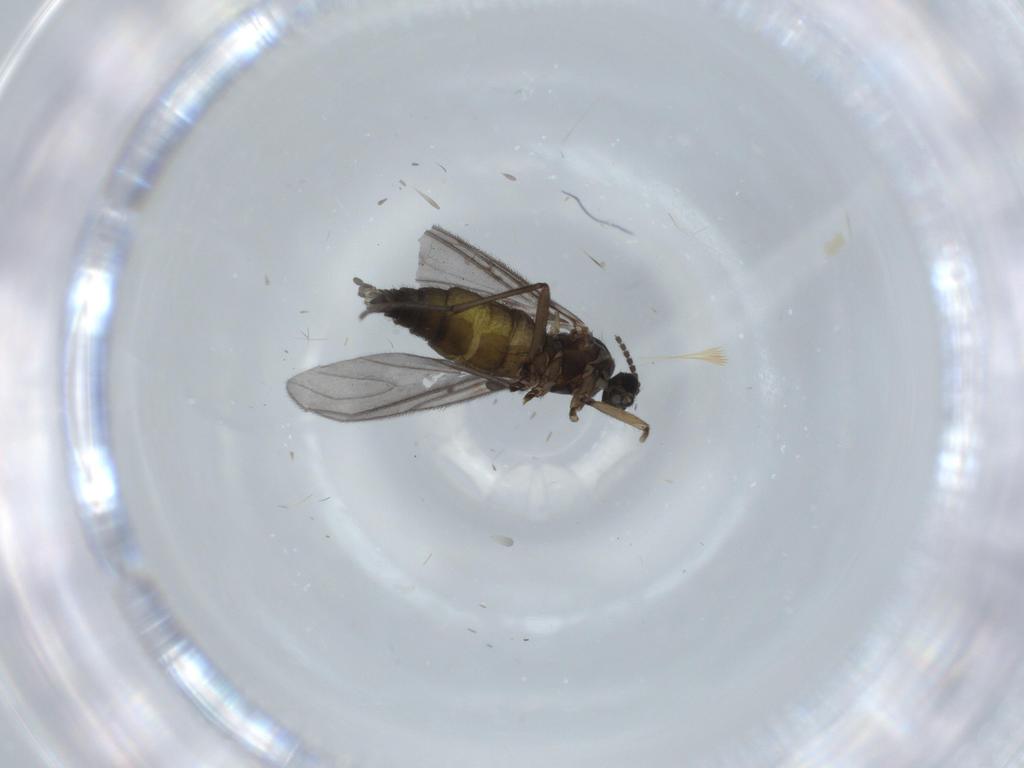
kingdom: Animalia
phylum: Arthropoda
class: Insecta
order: Diptera
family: Sciaridae
